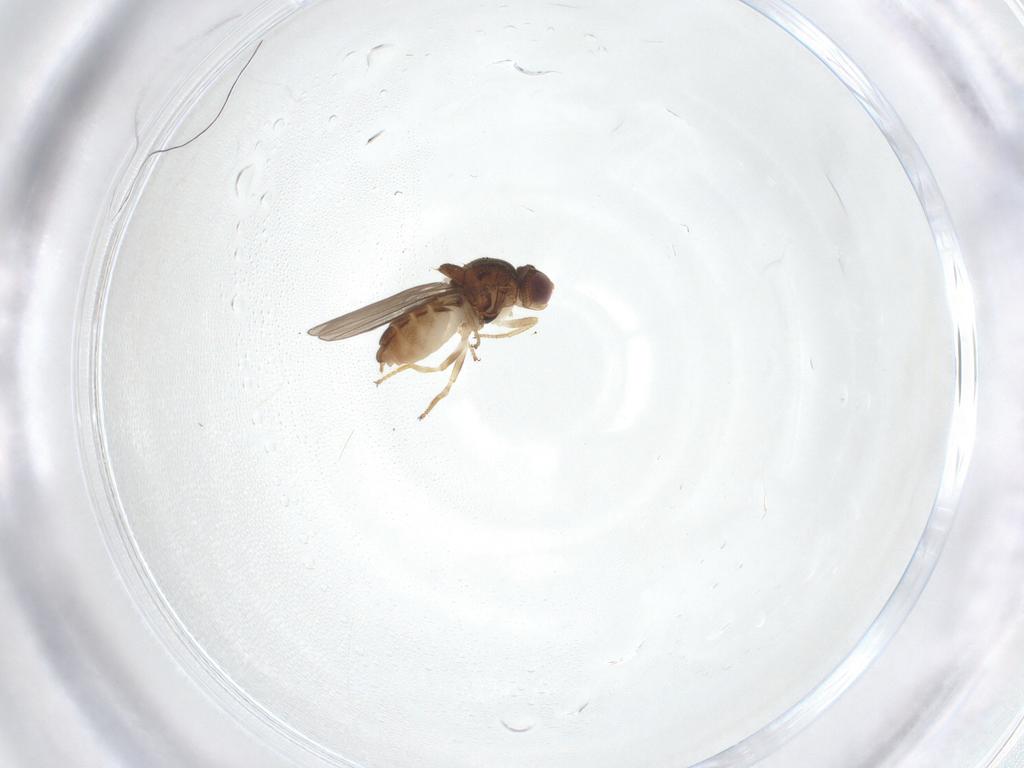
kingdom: Animalia
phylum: Arthropoda
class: Insecta
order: Diptera
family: Chloropidae
